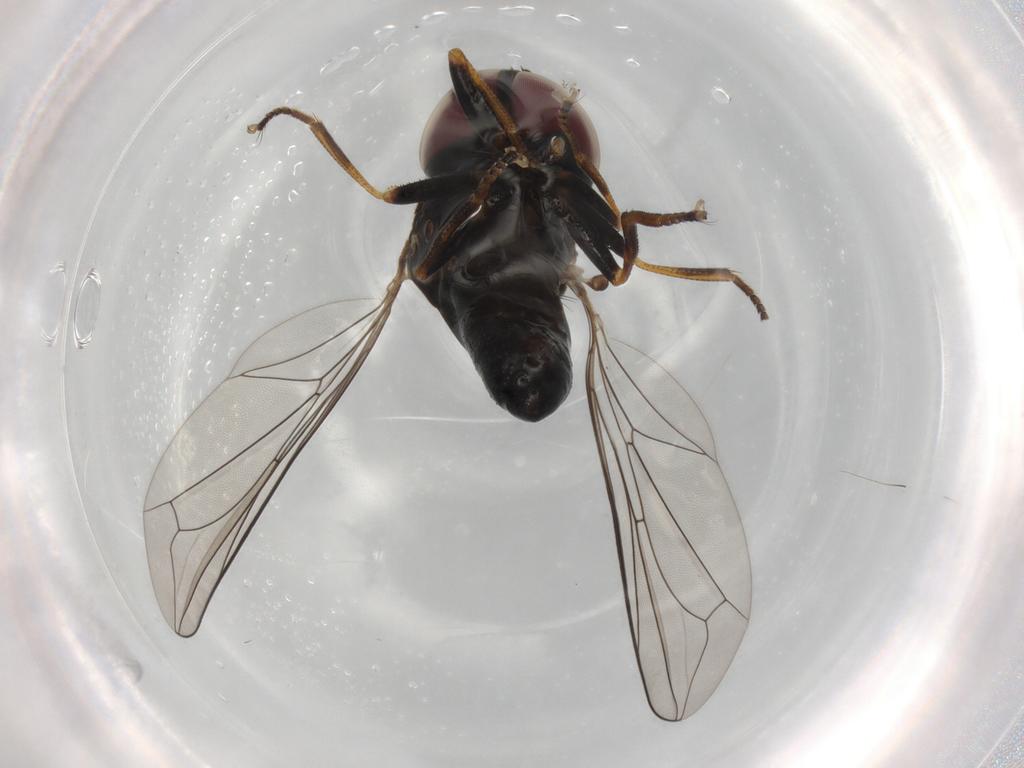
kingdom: Animalia
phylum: Arthropoda
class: Insecta
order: Diptera
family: Pipunculidae
